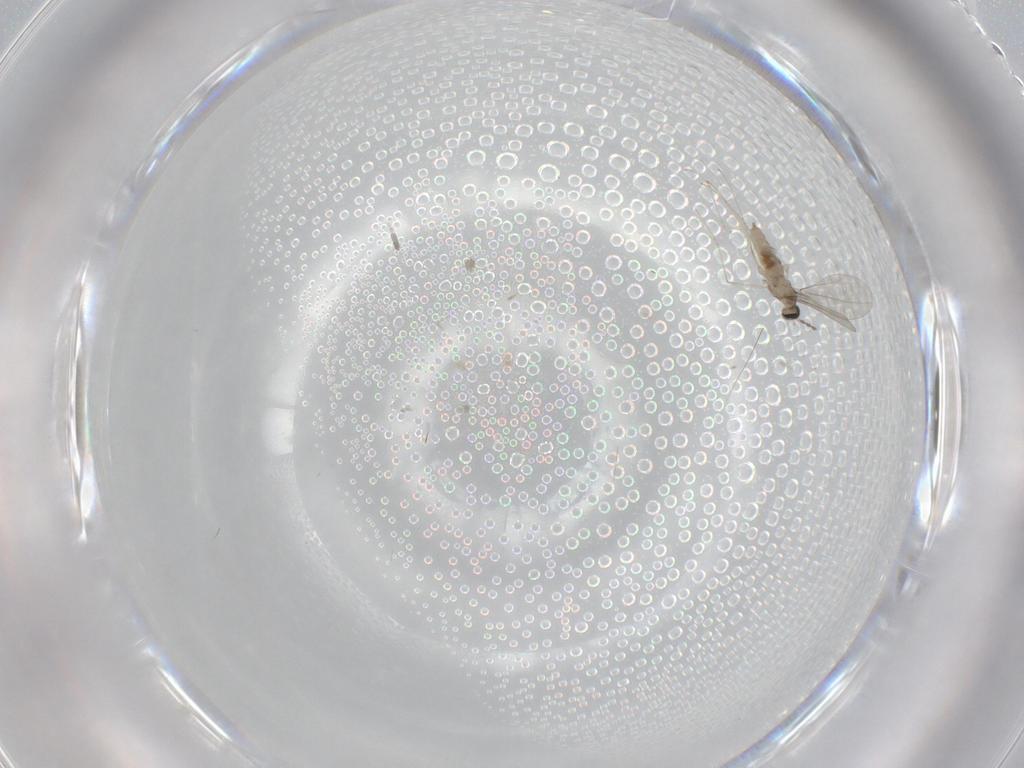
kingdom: Animalia
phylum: Arthropoda
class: Insecta
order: Diptera
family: Cecidomyiidae
